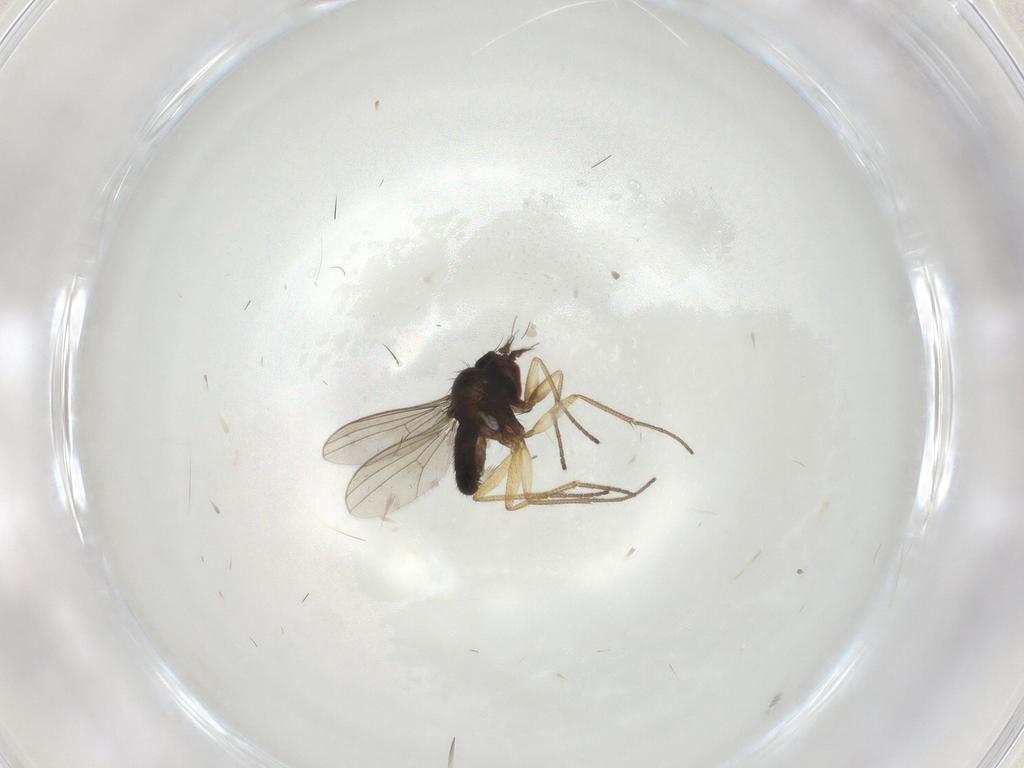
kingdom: Animalia
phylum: Arthropoda
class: Insecta
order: Diptera
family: Dolichopodidae
